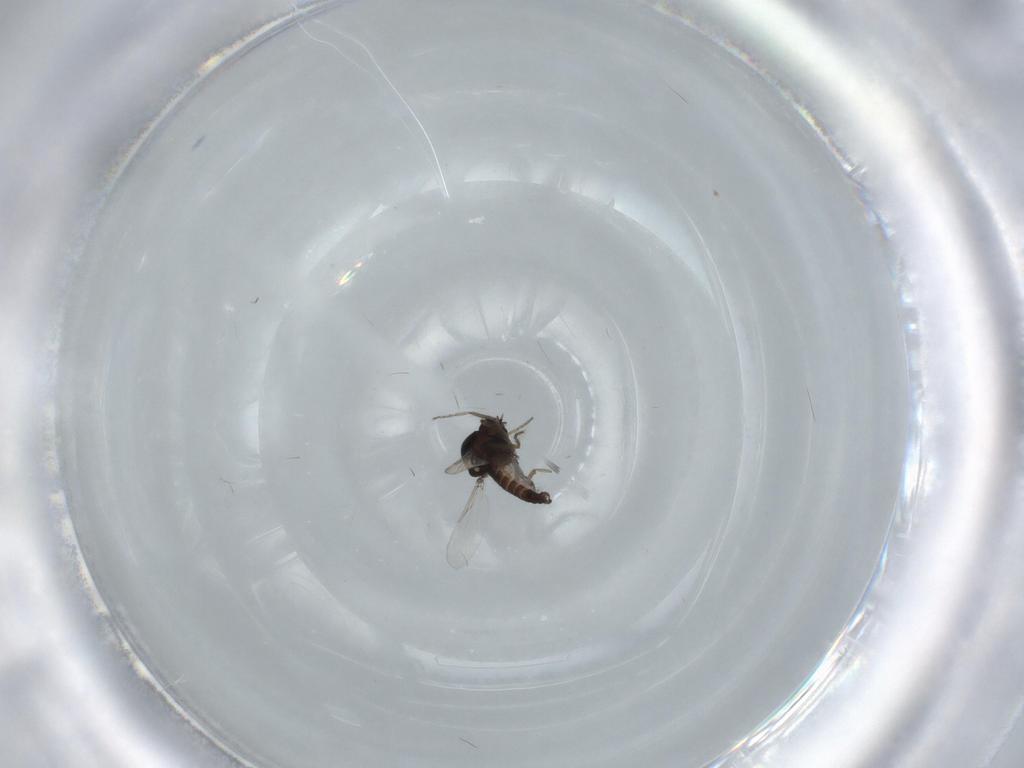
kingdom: Animalia
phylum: Arthropoda
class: Insecta
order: Diptera
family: Ceratopogonidae
